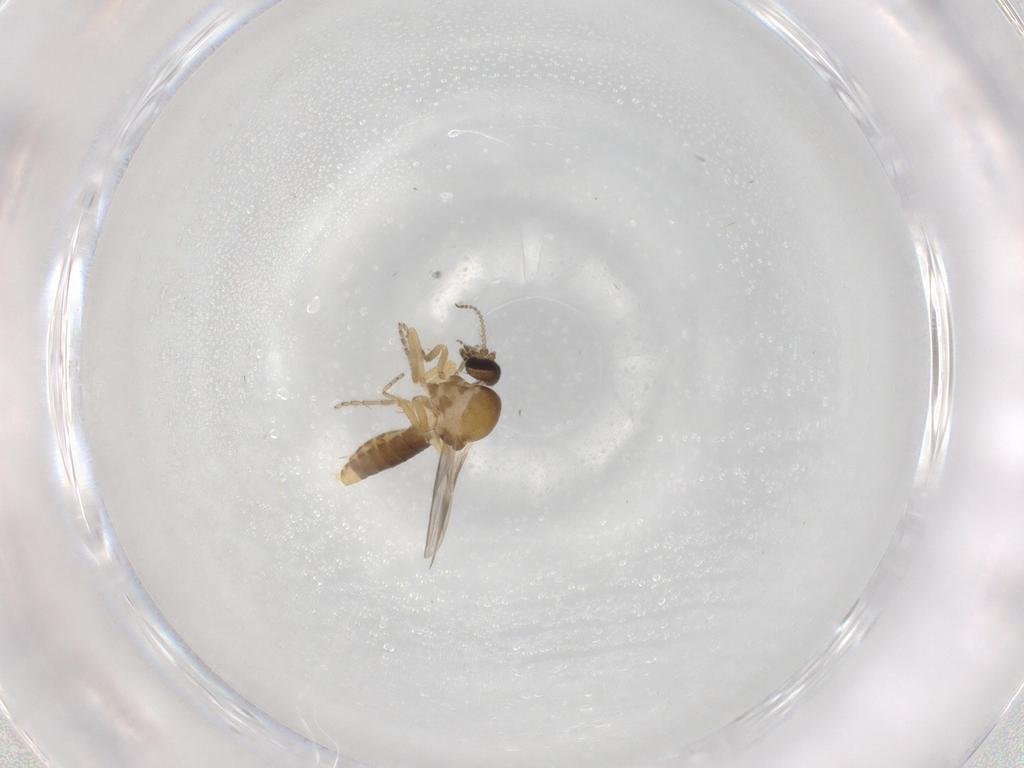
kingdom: Animalia
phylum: Arthropoda
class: Insecta
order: Diptera
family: Ceratopogonidae
